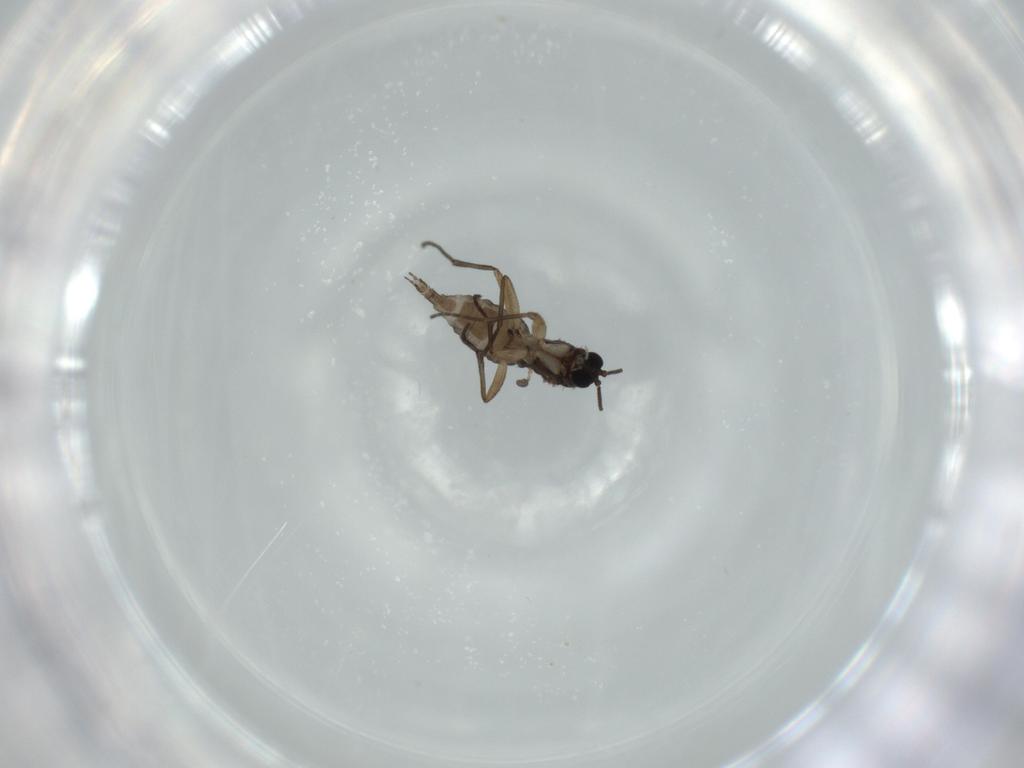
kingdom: Animalia
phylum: Arthropoda
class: Insecta
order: Diptera
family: Sciaridae
